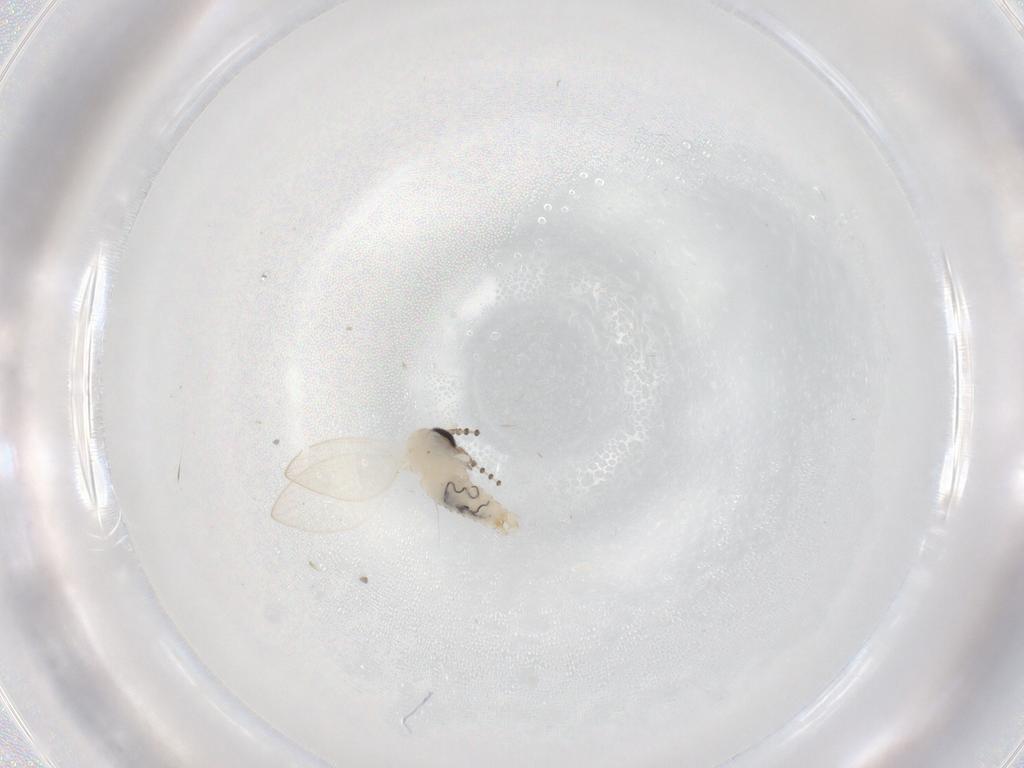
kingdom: Animalia
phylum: Arthropoda
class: Insecta
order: Diptera
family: Psychodidae
